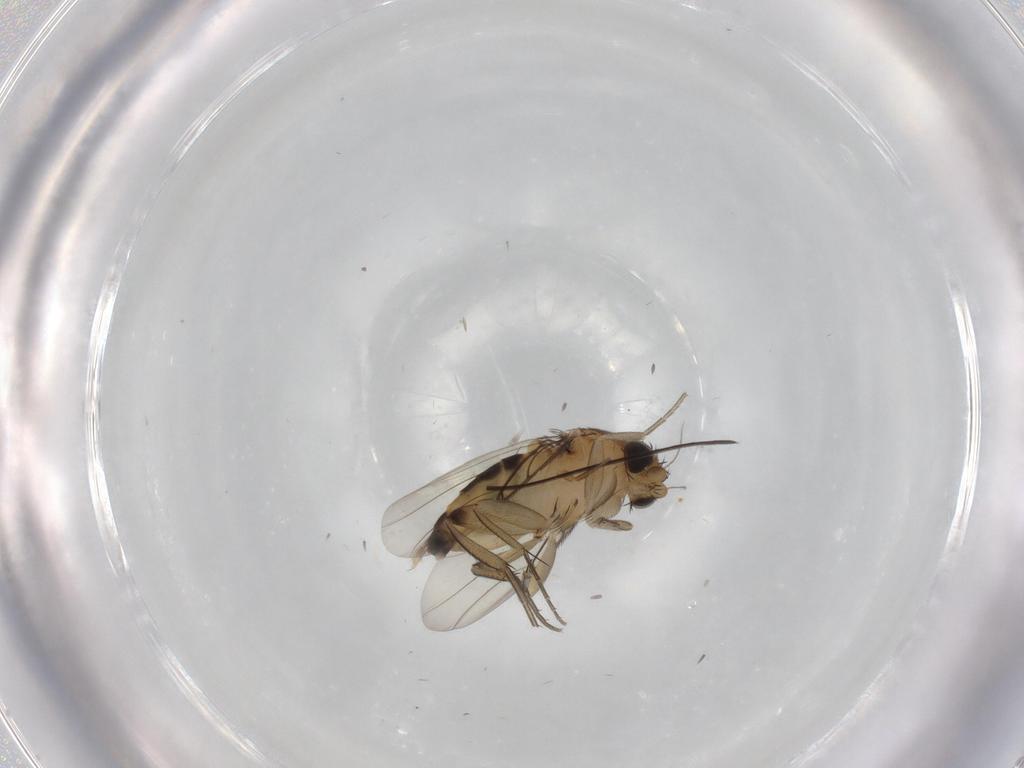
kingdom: Animalia
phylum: Arthropoda
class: Insecta
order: Diptera
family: Phoridae
